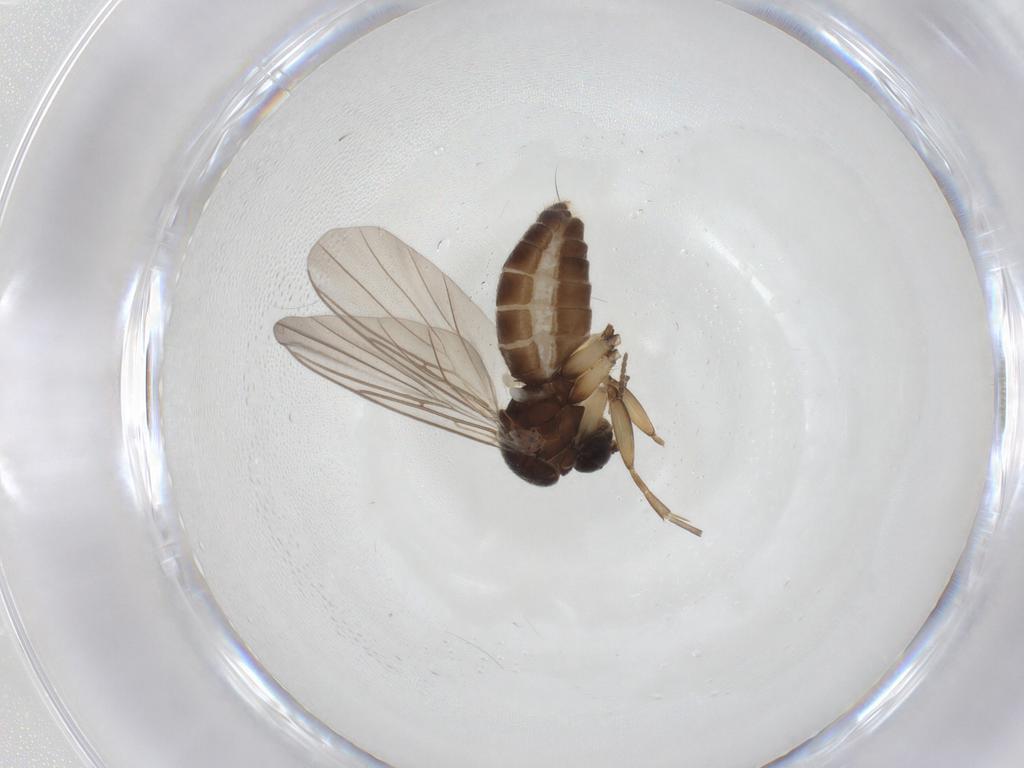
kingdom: Animalia
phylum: Arthropoda
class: Insecta
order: Diptera
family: Mycetophilidae
